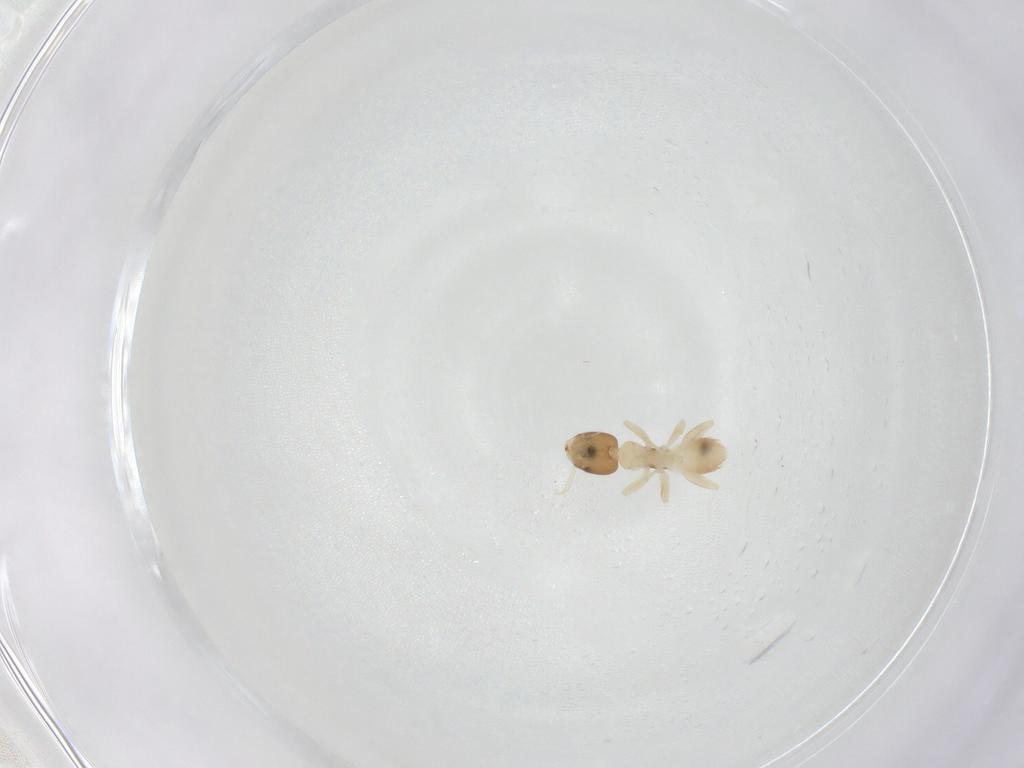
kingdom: Animalia
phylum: Arthropoda
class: Insecta
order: Hymenoptera
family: Formicidae
